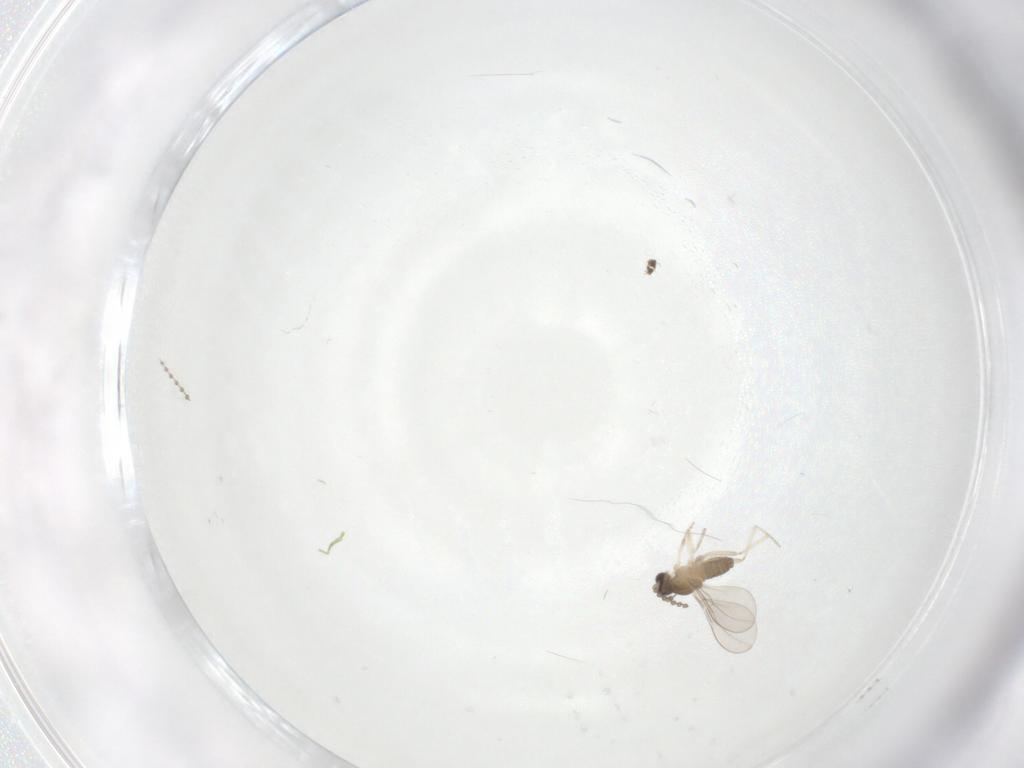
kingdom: Animalia
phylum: Arthropoda
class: Insecta
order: Diptera
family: Cecidomyiidae
